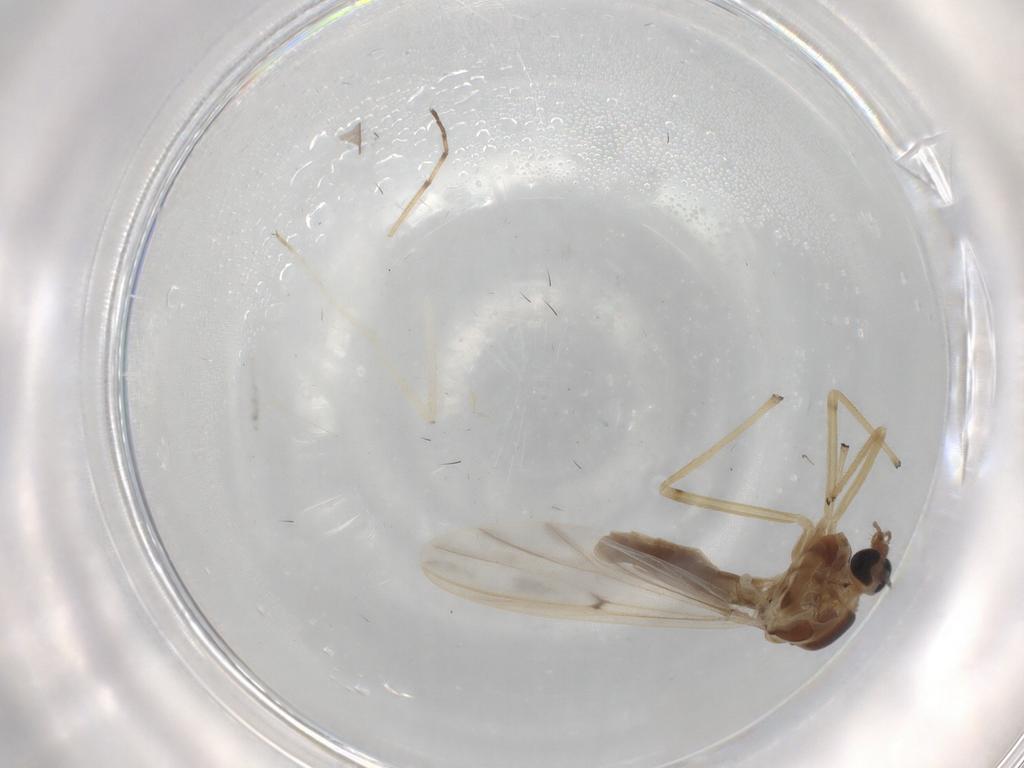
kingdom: Animalia
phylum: Arthropoda
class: Insecta
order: Diptera
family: Chironomidae
